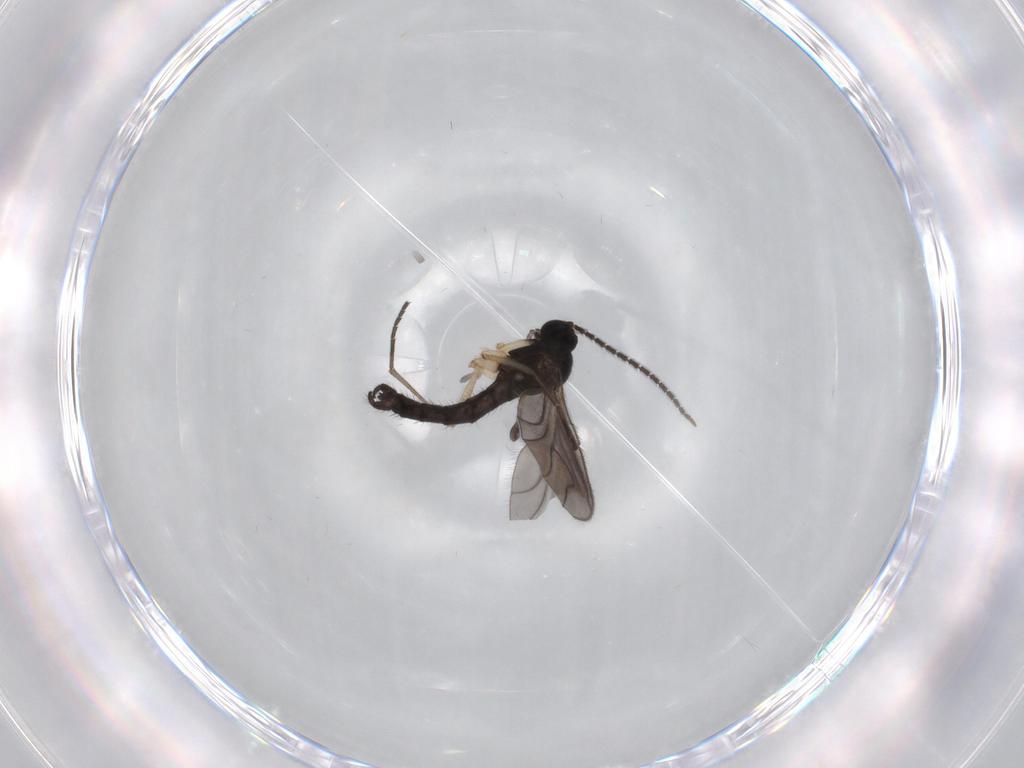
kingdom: Animalia
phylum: Arthropoda
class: Insecta
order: Diptera
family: Sciaridae
